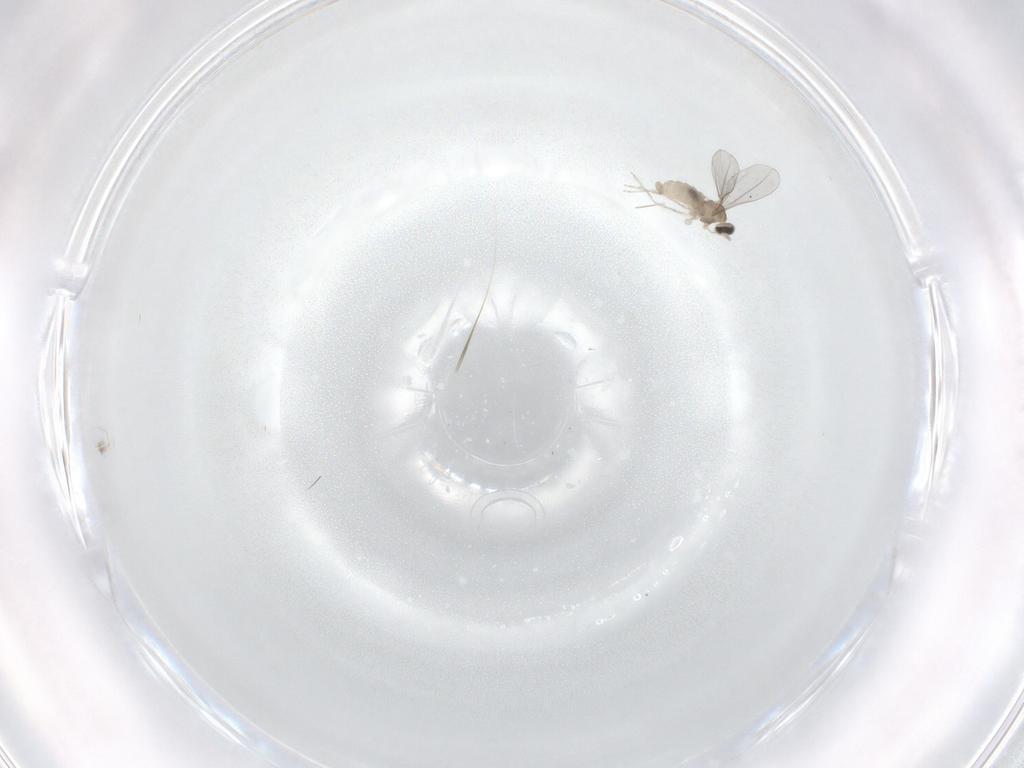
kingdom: Animalia
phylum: Arthropoda
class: Insecta
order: Diptera
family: Cecidomyiidae
